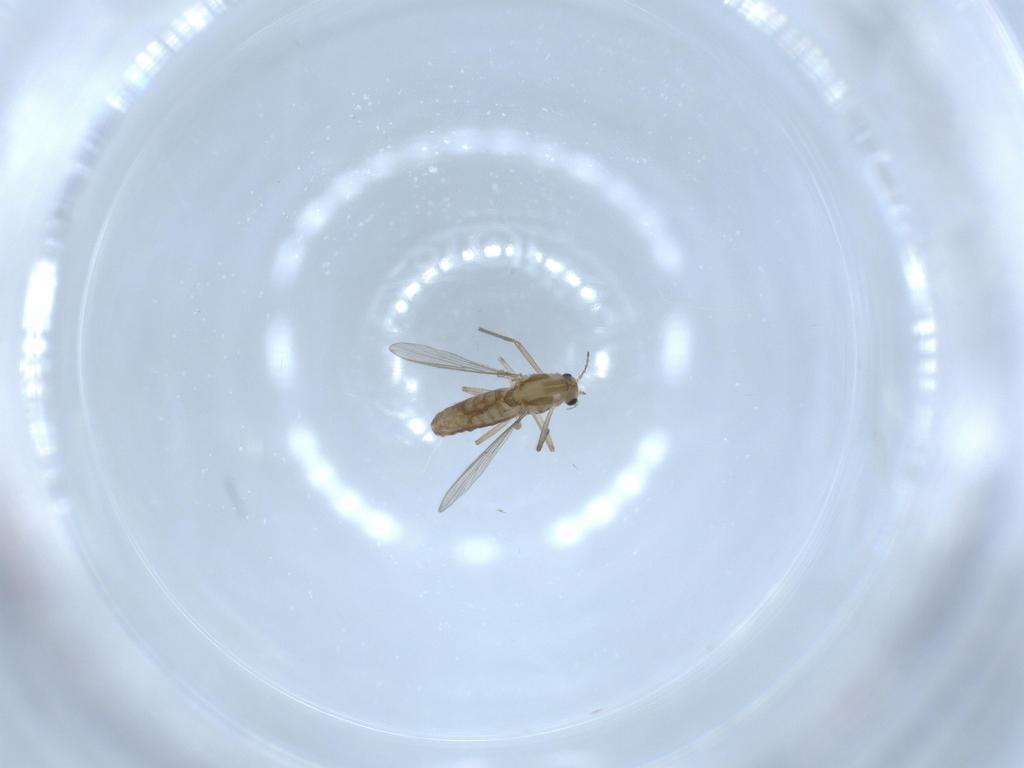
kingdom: Animalia
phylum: Arthropoda
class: Insecta
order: Diptera
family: Chironomidae
